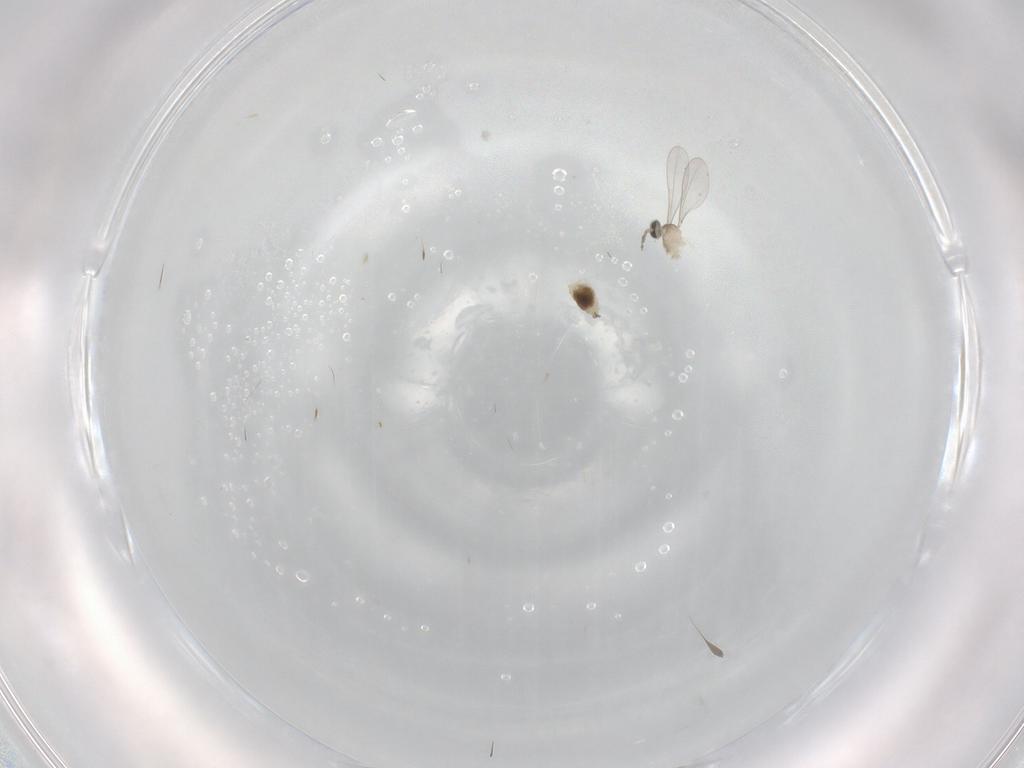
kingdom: Animalia
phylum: Arthropoda
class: Insecta
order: Diptera
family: Cecidomyiidae
